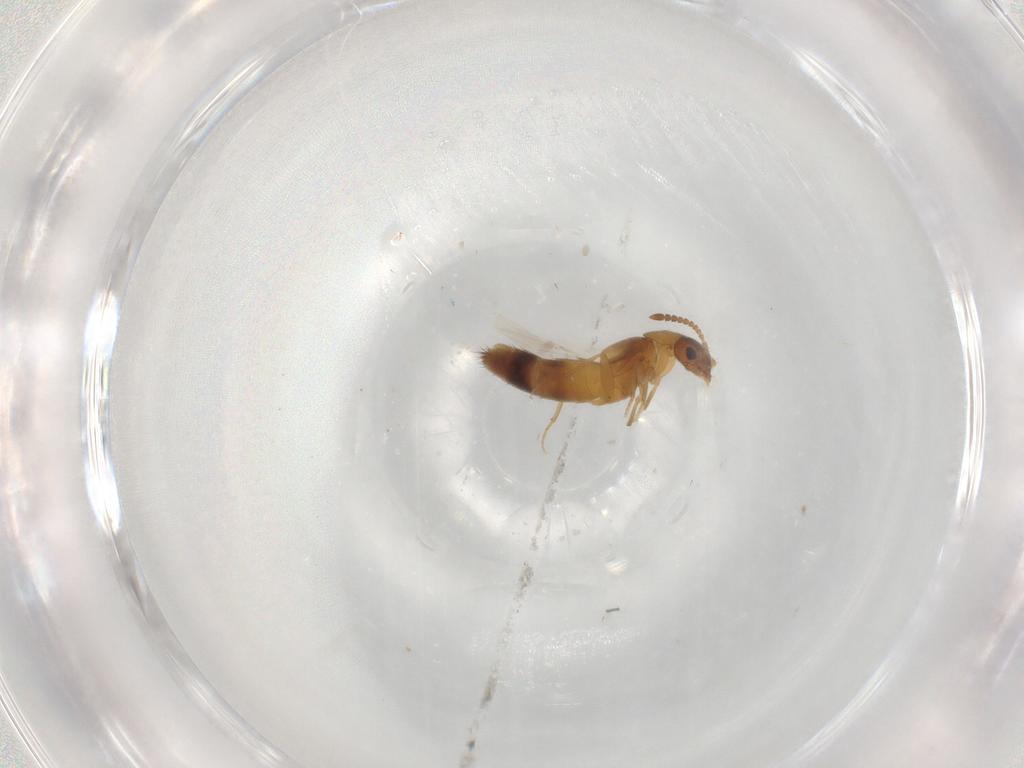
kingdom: Animalia
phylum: Arthropoda
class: Insecta
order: Coleoptera
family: Staphylinidae
